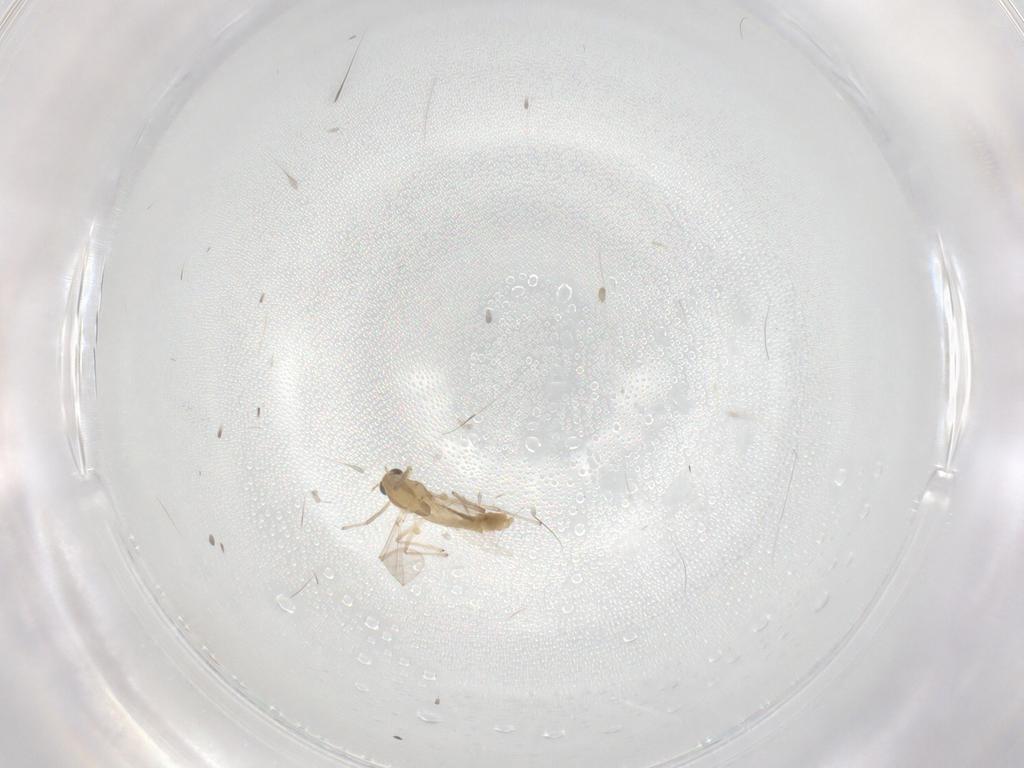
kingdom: Animalia
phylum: Arthropoda
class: Insecta
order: Diptera
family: Chironomidae
